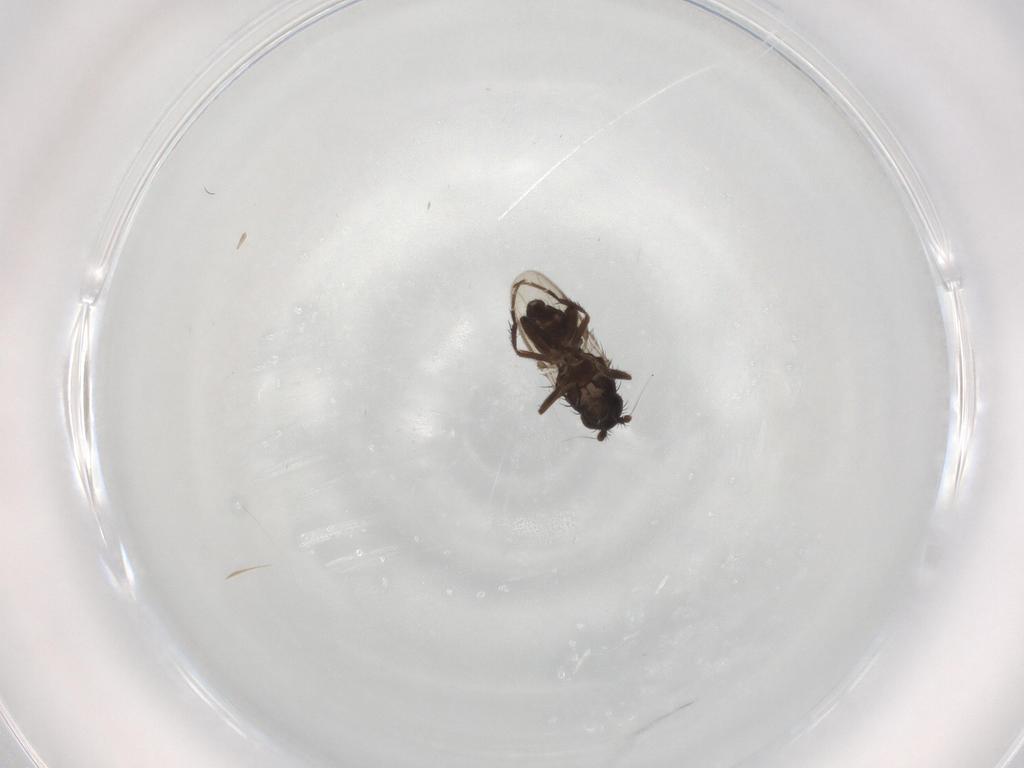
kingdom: Animalia
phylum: Arthropoda
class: Insecta
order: Diptera
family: Sphaeroceridae
